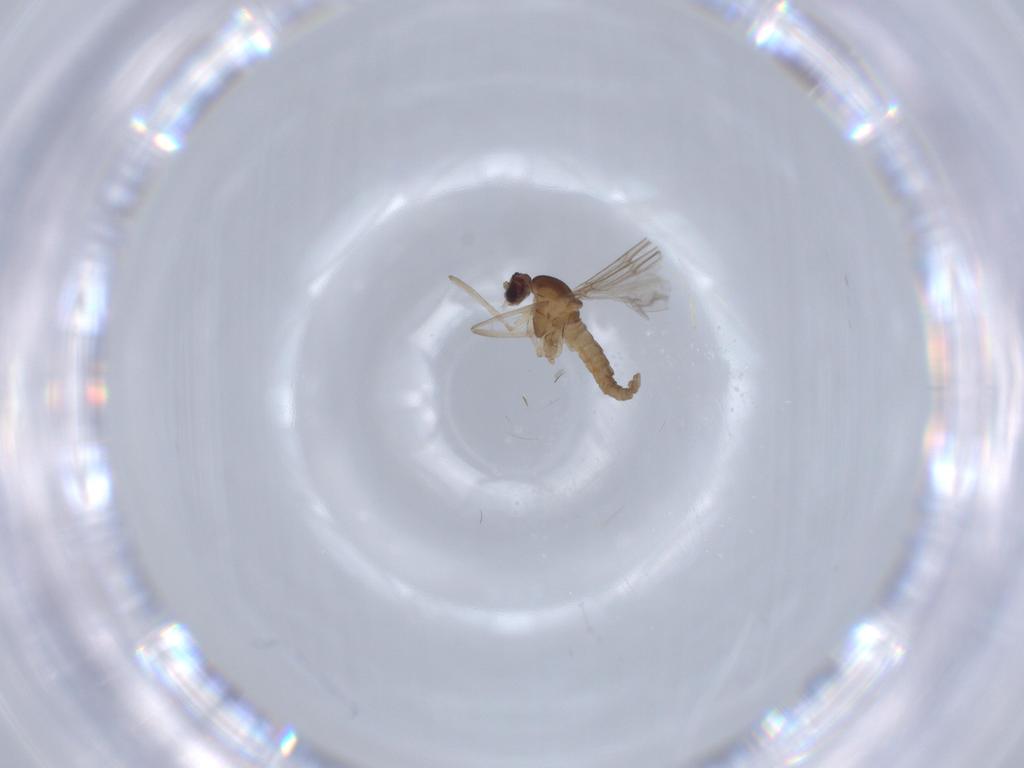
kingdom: Animalia
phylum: Arthropoda
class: Insecta
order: Diptera
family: Cecidomyiidae
